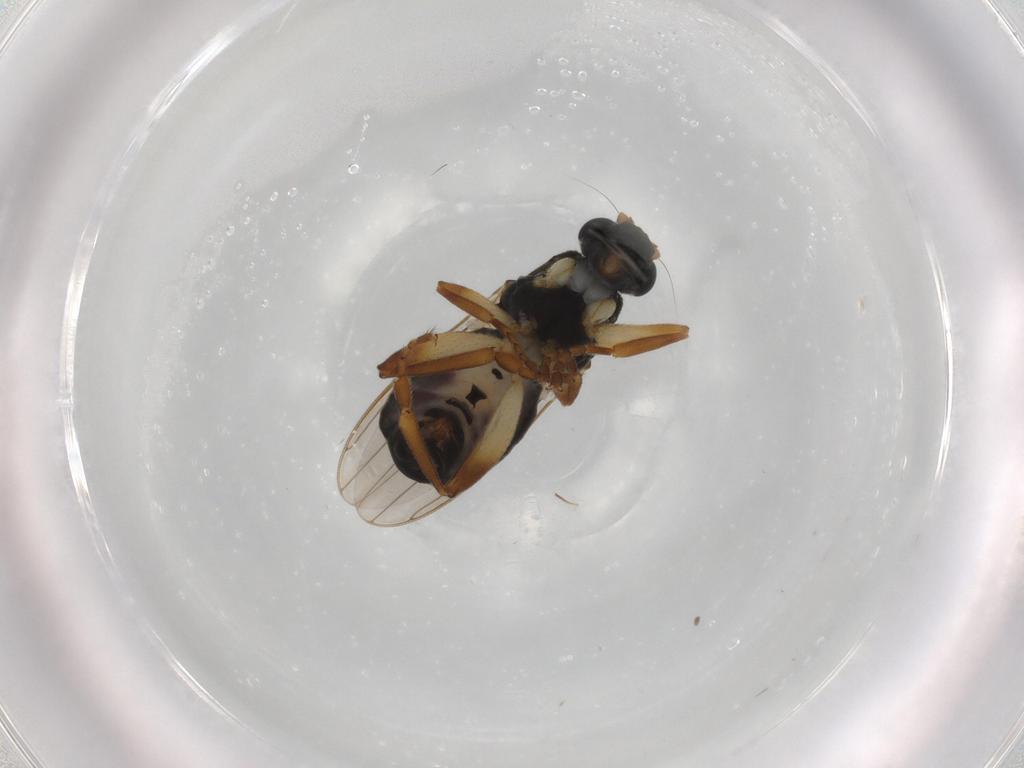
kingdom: Animalia
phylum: Arthropoda
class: Insecta
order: Diptera
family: Sphaeroceridae
